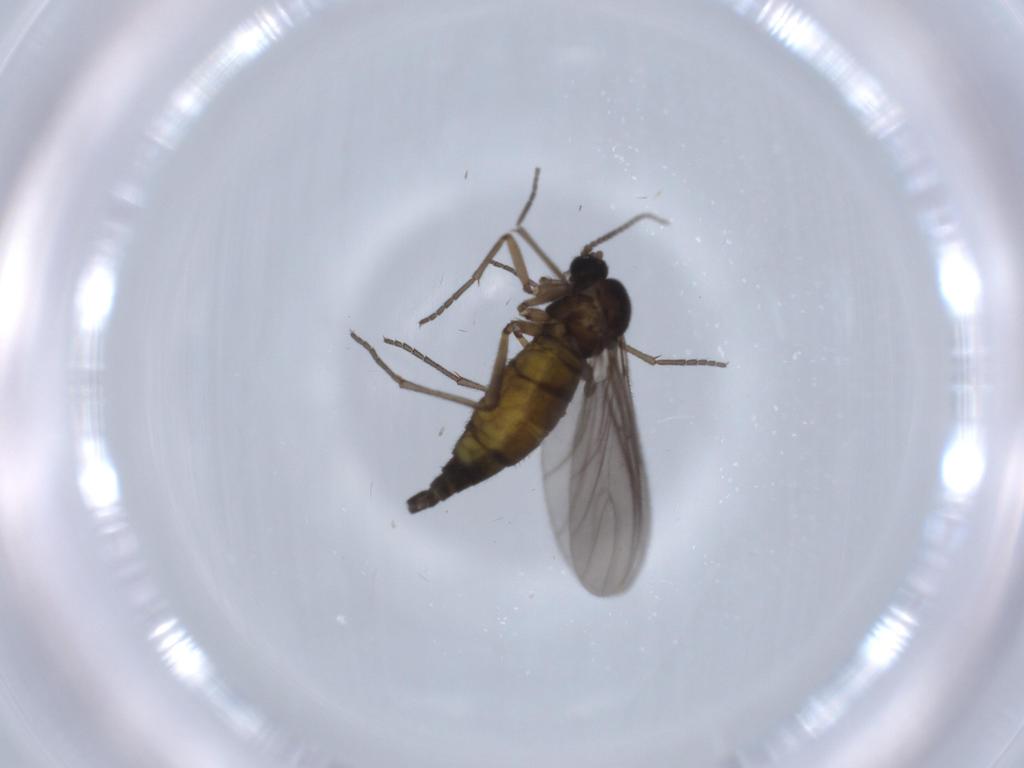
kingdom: Animalia
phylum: Arthropoda
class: Insecta
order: Diptera
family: Sciaridae
